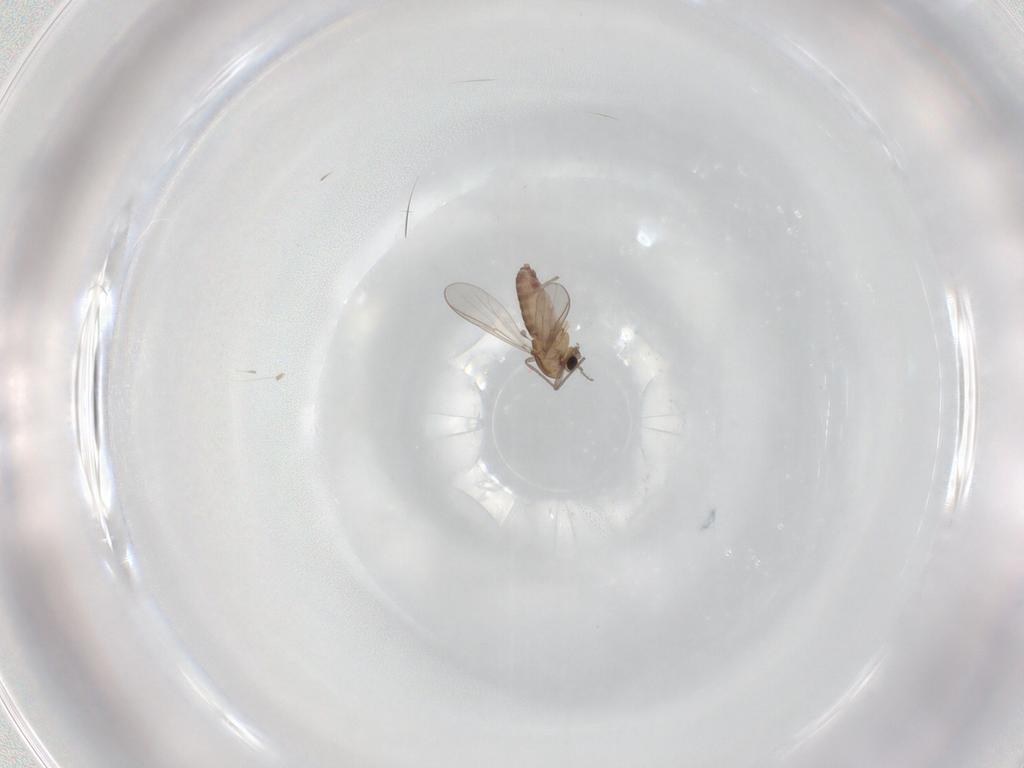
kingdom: Animalia
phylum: Arthropoda
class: Insecta
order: Diptera
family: Chironomidae
